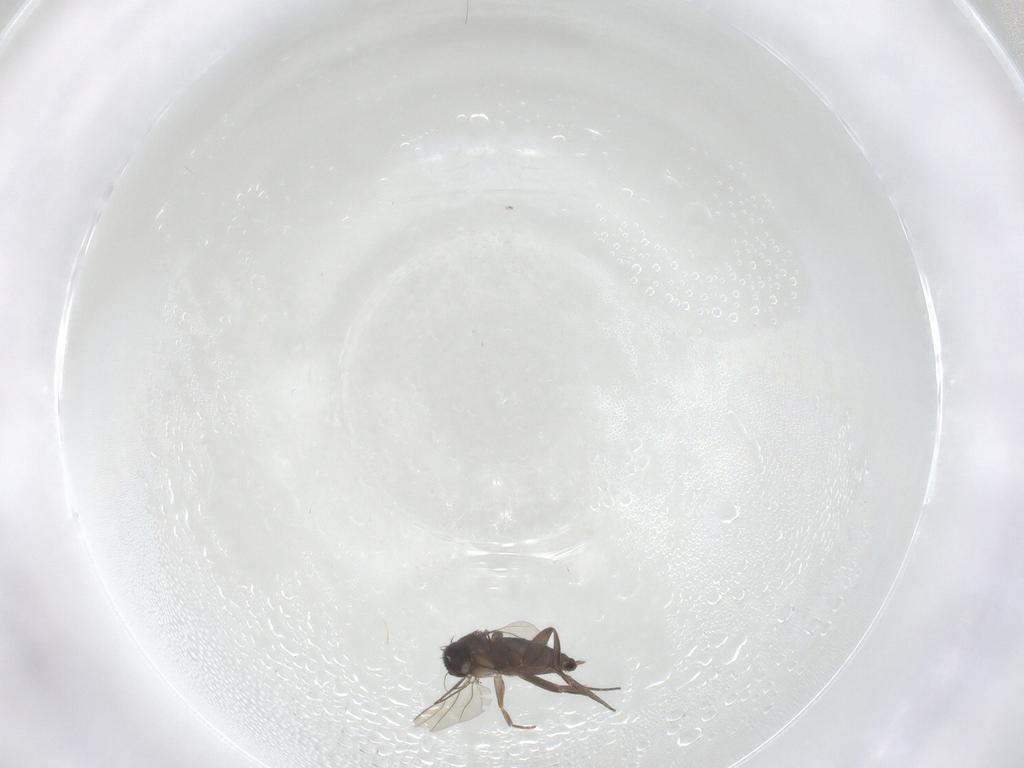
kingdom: Animalia
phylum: Arthropoda
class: Insecta
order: Diptera
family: Phoridae
